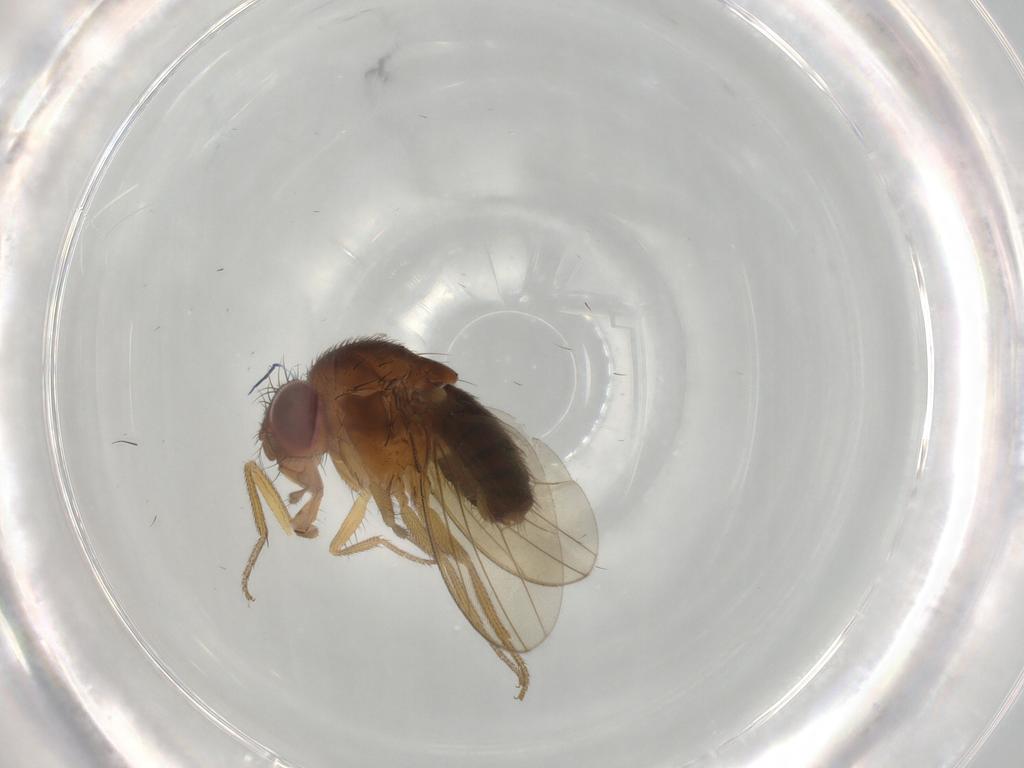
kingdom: Animalia
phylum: Arthropoda
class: Insecta
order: Diptera
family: Drosophilidae
